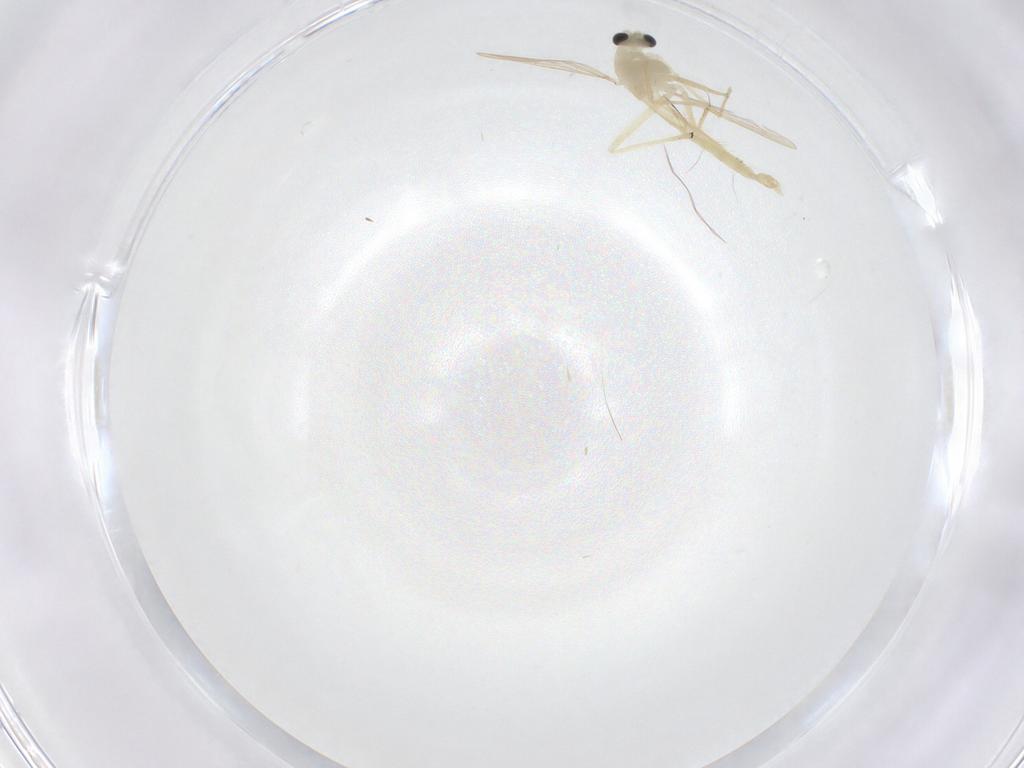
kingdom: Animalia
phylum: Arthropoda
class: Insecta
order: Diptera
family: Chironomidae
